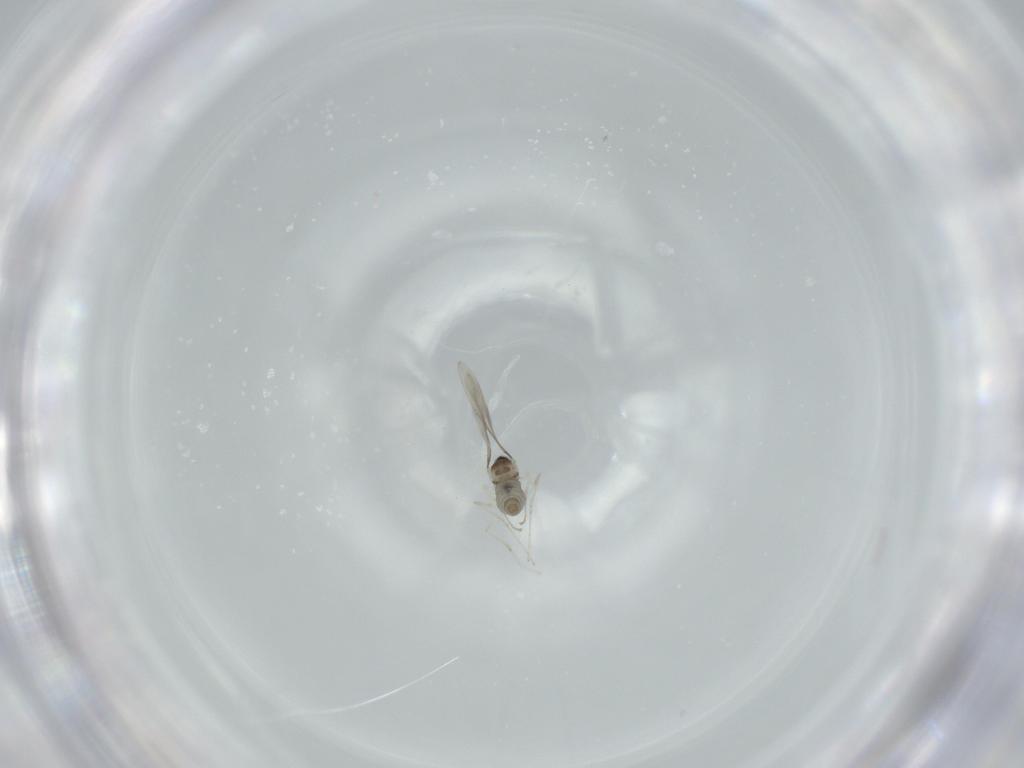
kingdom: Animalia
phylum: Arthropoda
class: Insecta
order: Diptera
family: Cecidomyiidae
